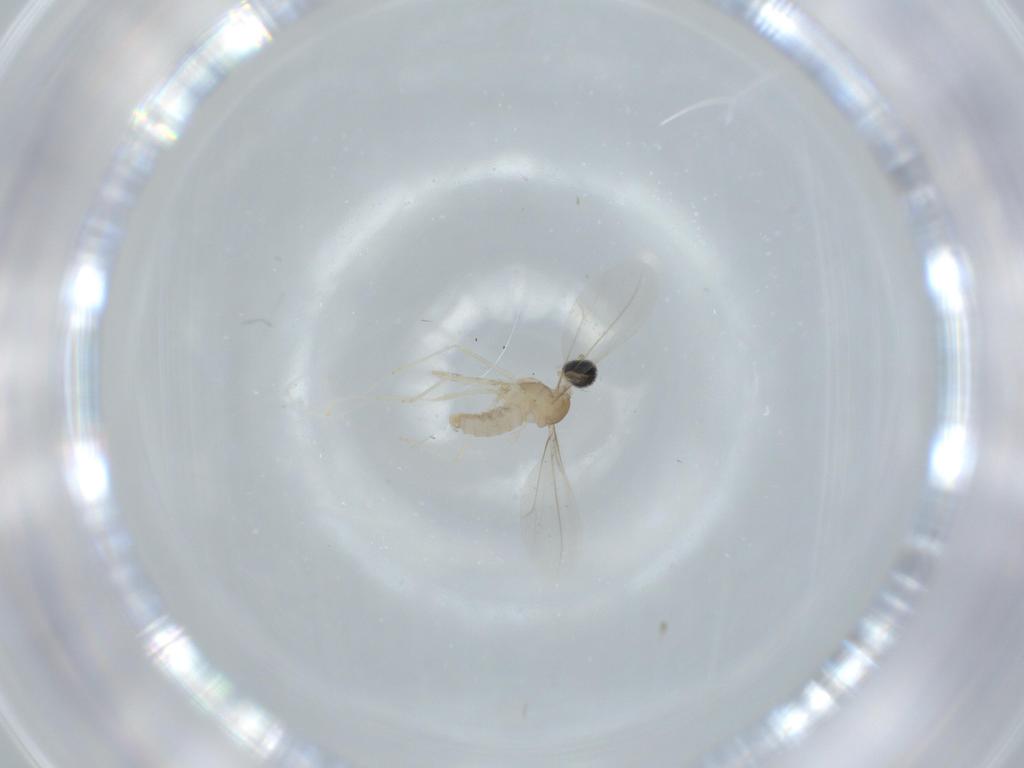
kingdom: Animalia
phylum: Arthropoda
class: Insecta
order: Diptera
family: Cecidomyiidae
